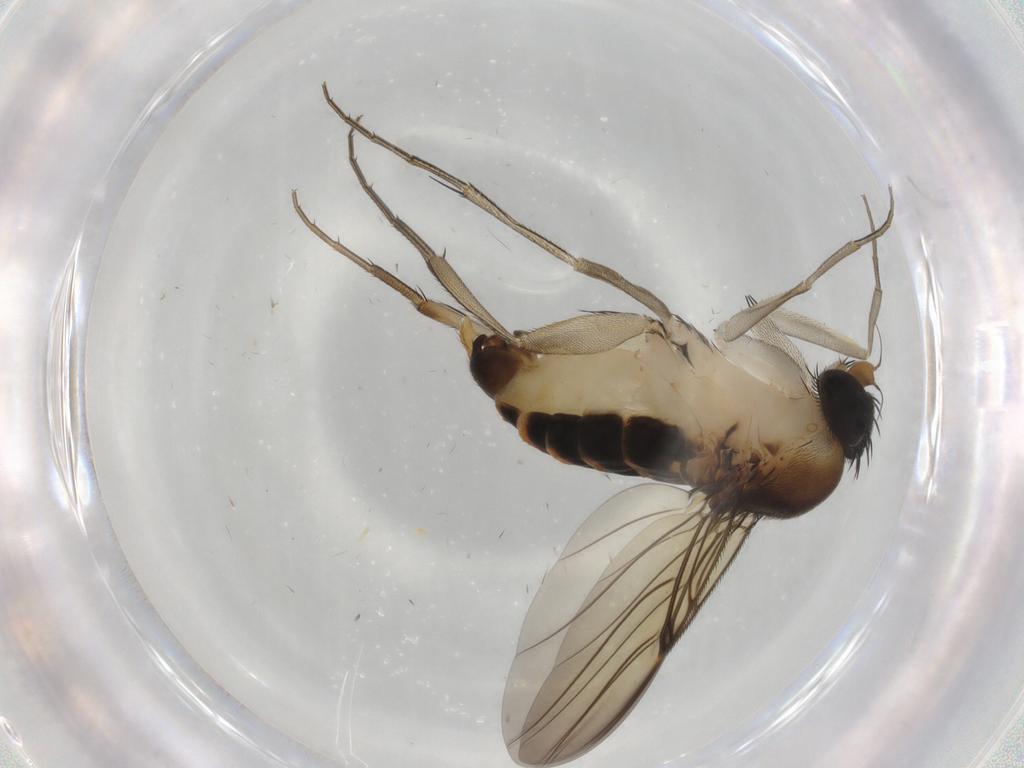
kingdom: Animalia
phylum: Arthropoda
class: Insecta
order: Diptera
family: Phoridae
